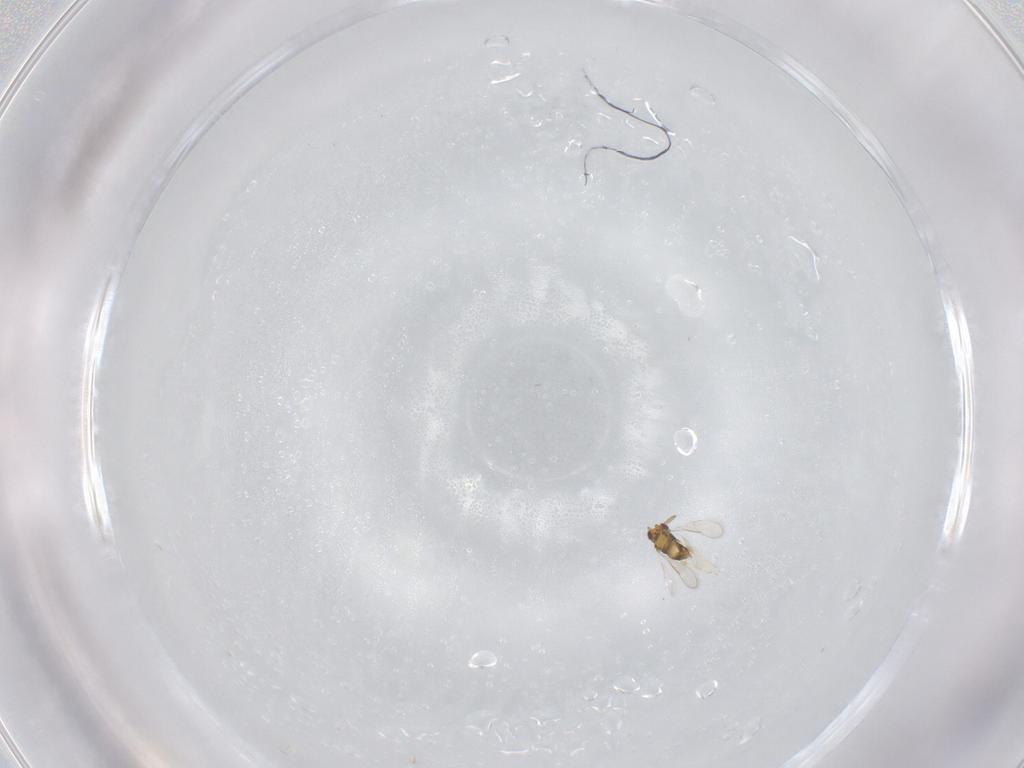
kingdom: Animalia
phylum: Arthropoda
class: Insecta
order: Hymenoptera
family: Aphelinidae
